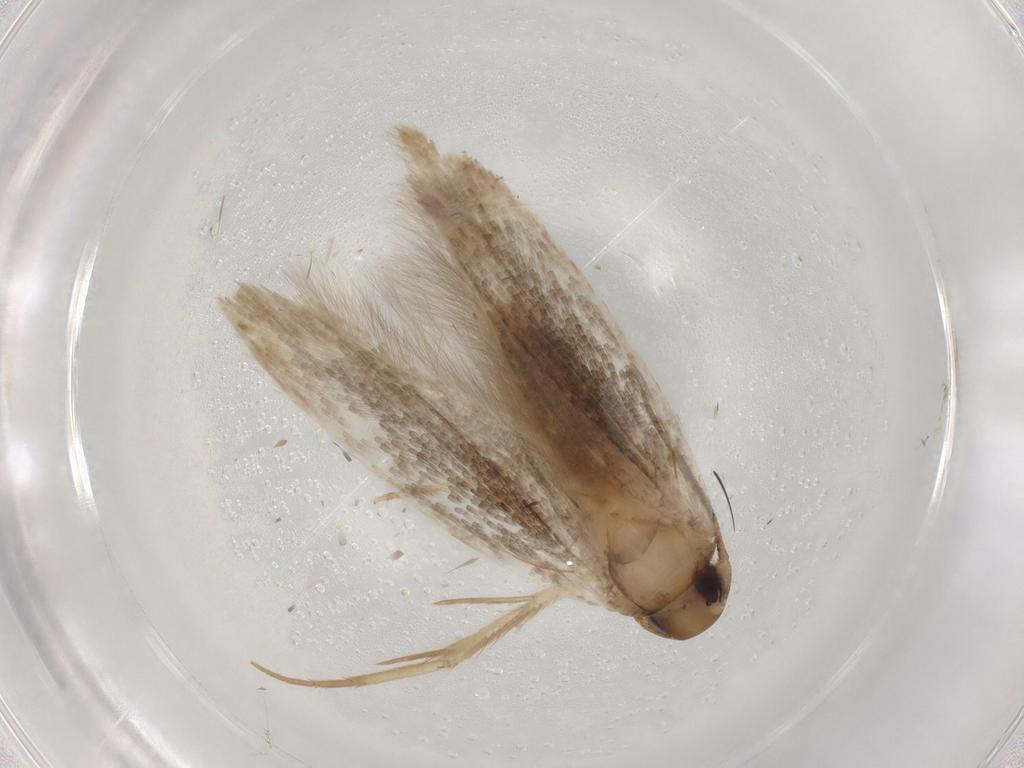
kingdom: Animalia
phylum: Arthropoda
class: Insecta
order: Lepidoptera
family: Cosmopterigidae
